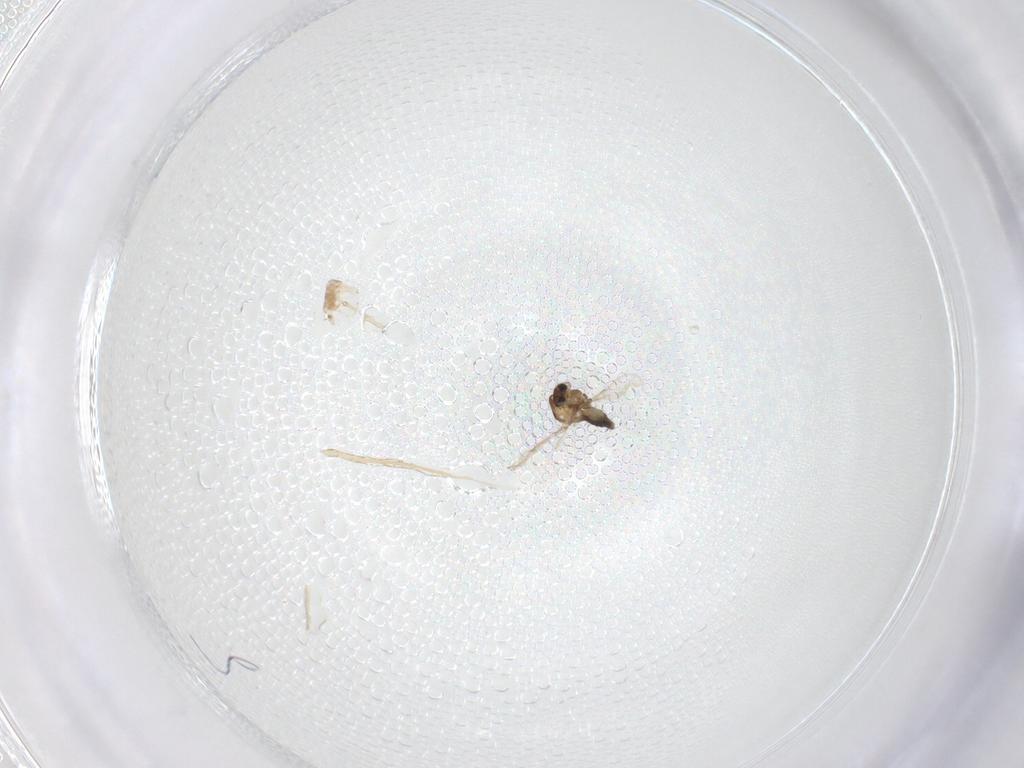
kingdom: Animalia
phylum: Arthropoda
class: Insecta
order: Diptera
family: Chironomidae
